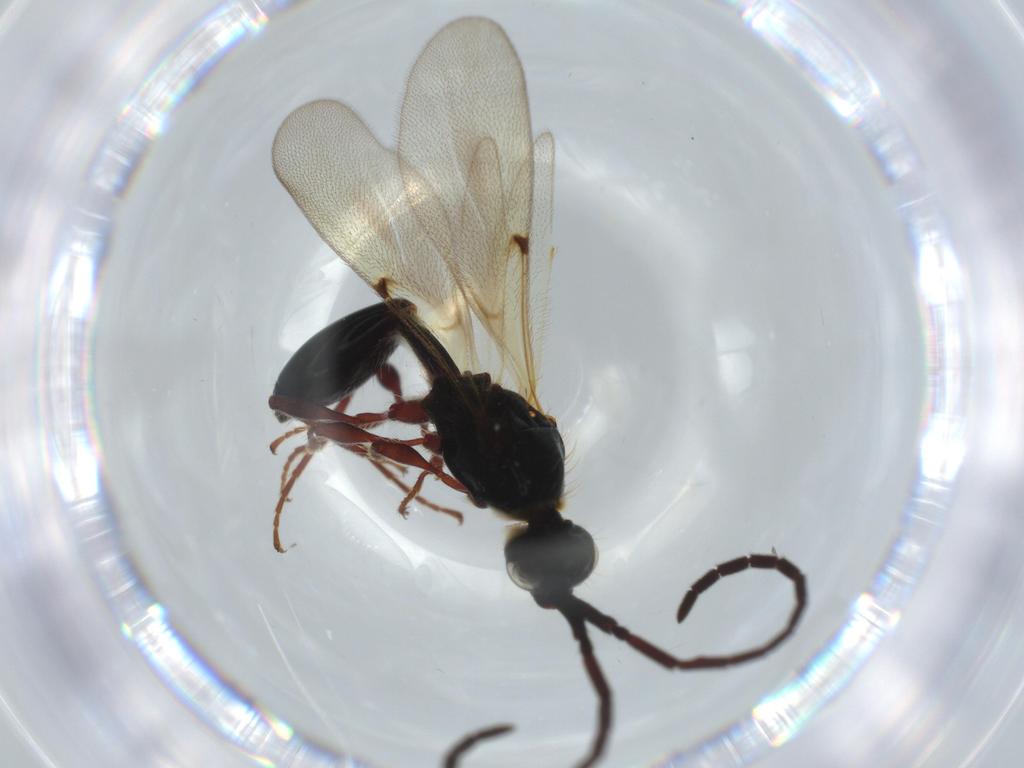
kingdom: Animalia
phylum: Arthropoda
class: Insecta
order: Hymenoptera
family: Diapriidae
